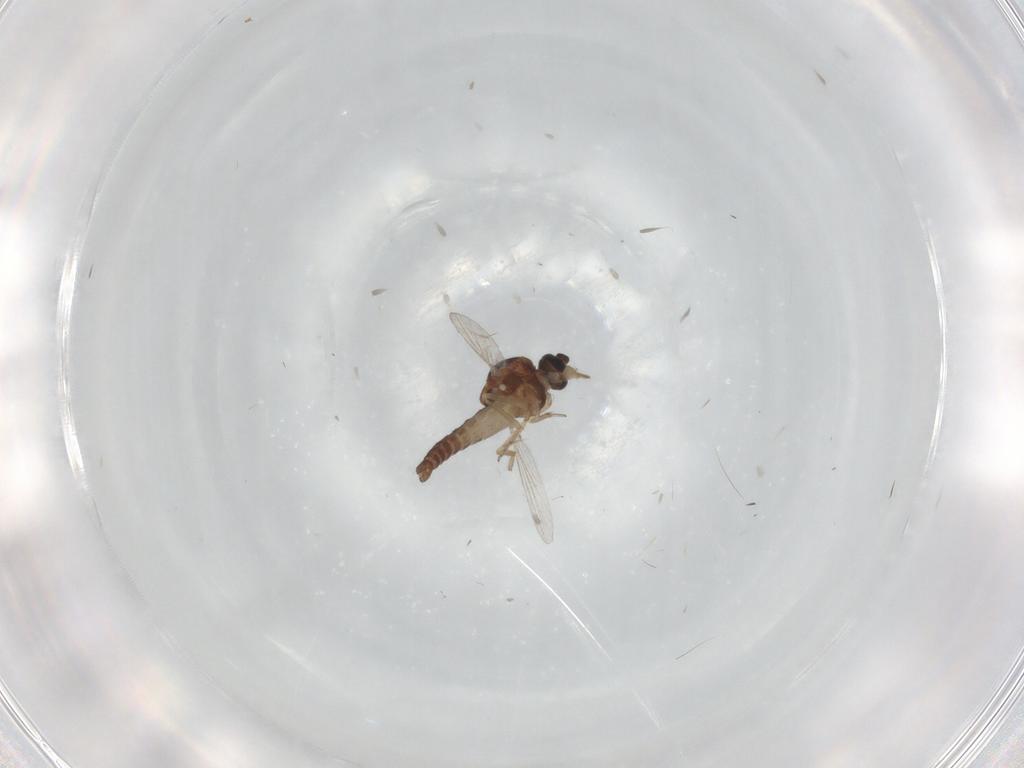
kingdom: Animalia
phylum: Arthropoda
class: Insecta
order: Diptera
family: Ceratopogonidae
